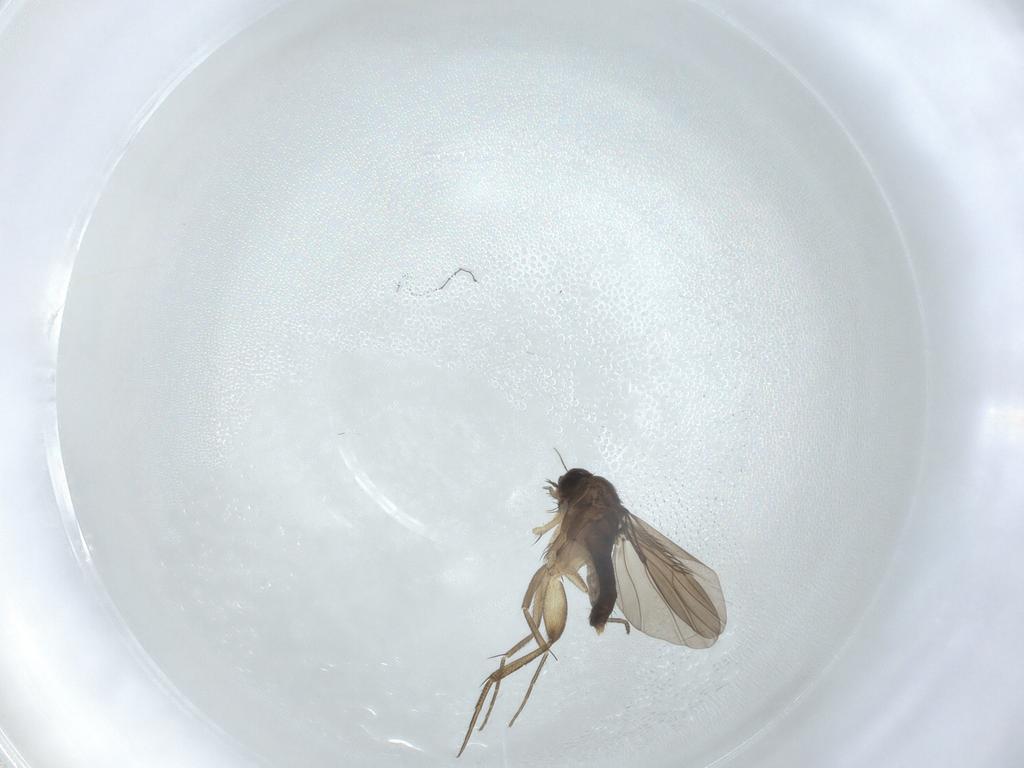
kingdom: Animalia
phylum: Arthropoda
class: Insecta
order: Diptera
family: Phoridae
